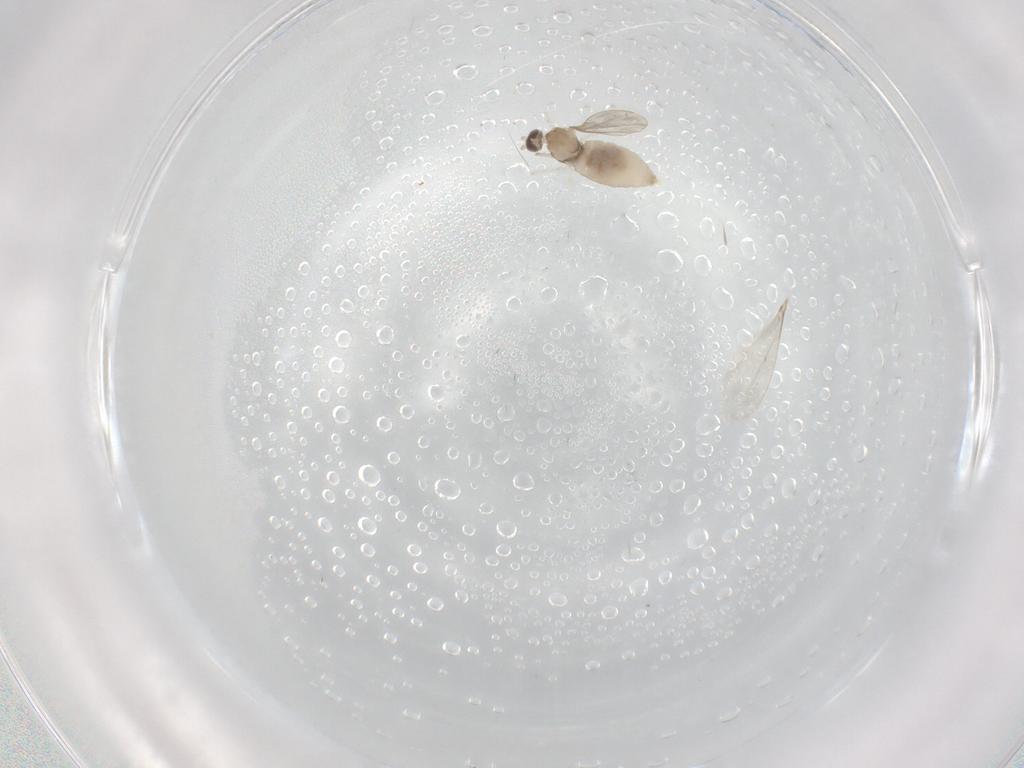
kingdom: Animalia
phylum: Arthropoda
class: Insecta
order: Diptera
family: Cecidomyiidae
